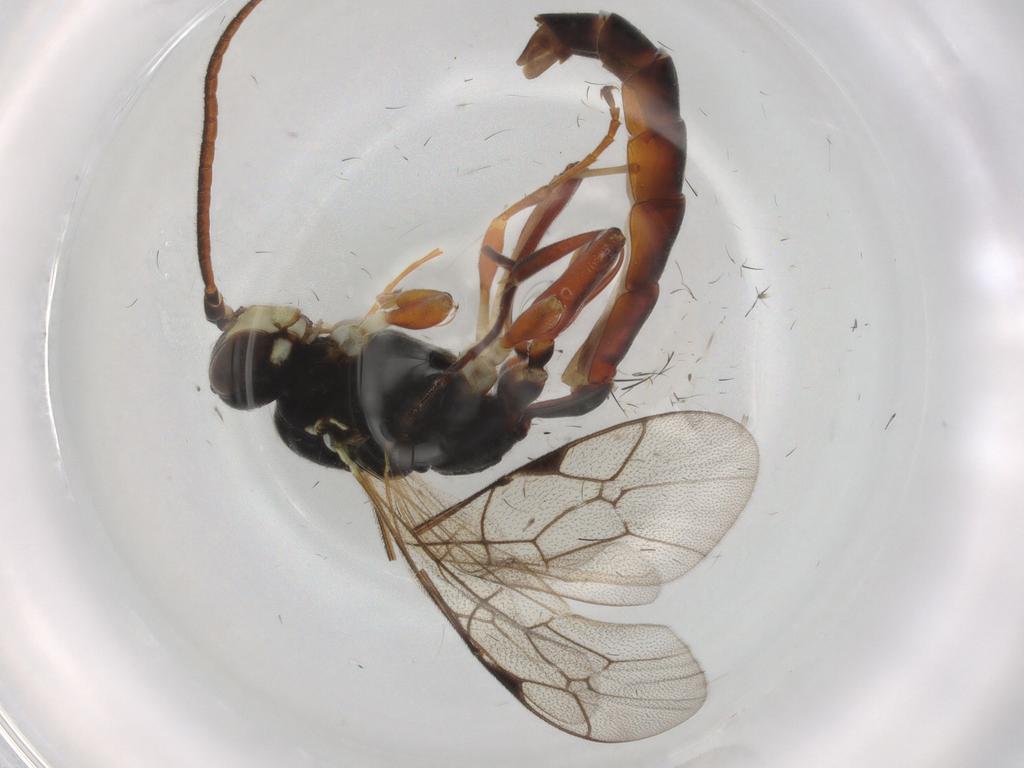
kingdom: Animalia
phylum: Arthropoda
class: Insecta
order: Hymenoptera
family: Ichneumonidae
